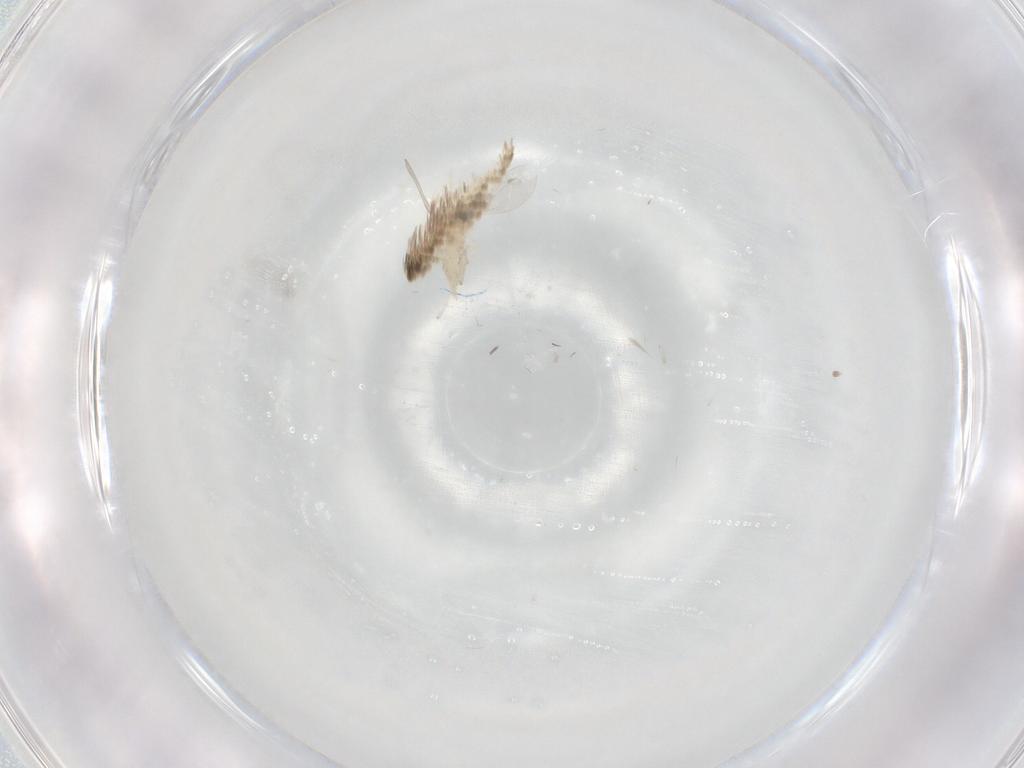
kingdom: Animalia
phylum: Arthropoda
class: Insecta
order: Diptera
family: Cecidomyiidae
